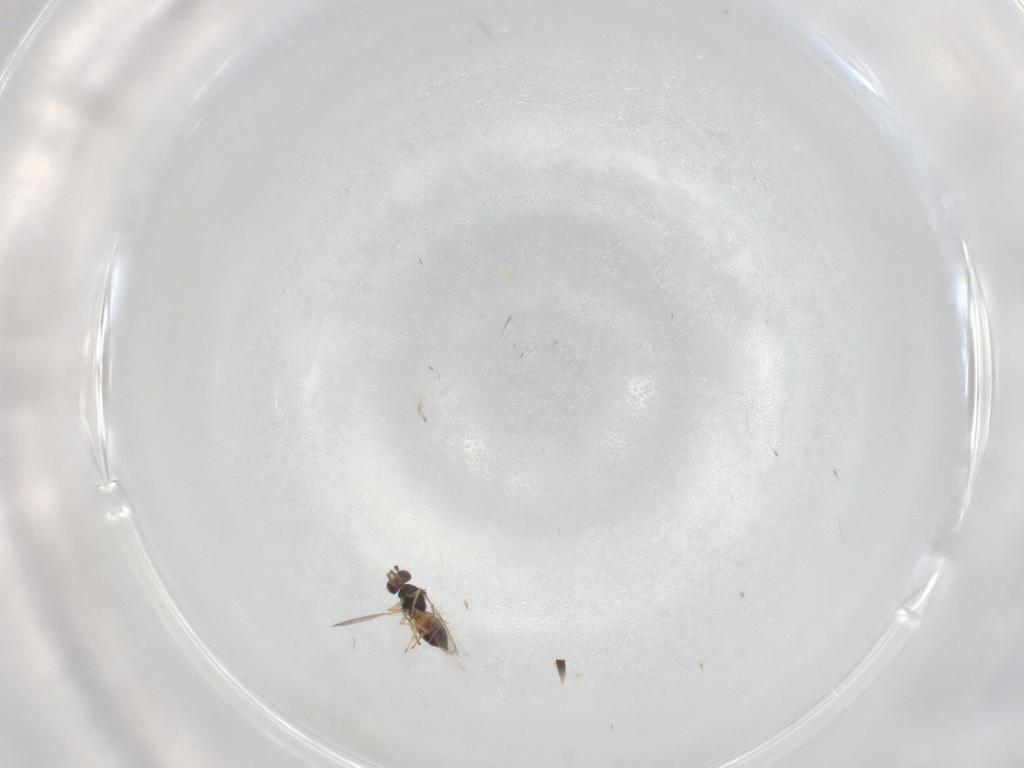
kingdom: Animalia
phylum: Arthropoda
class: Insecta
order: Hymenoptera
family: Eulophidae
